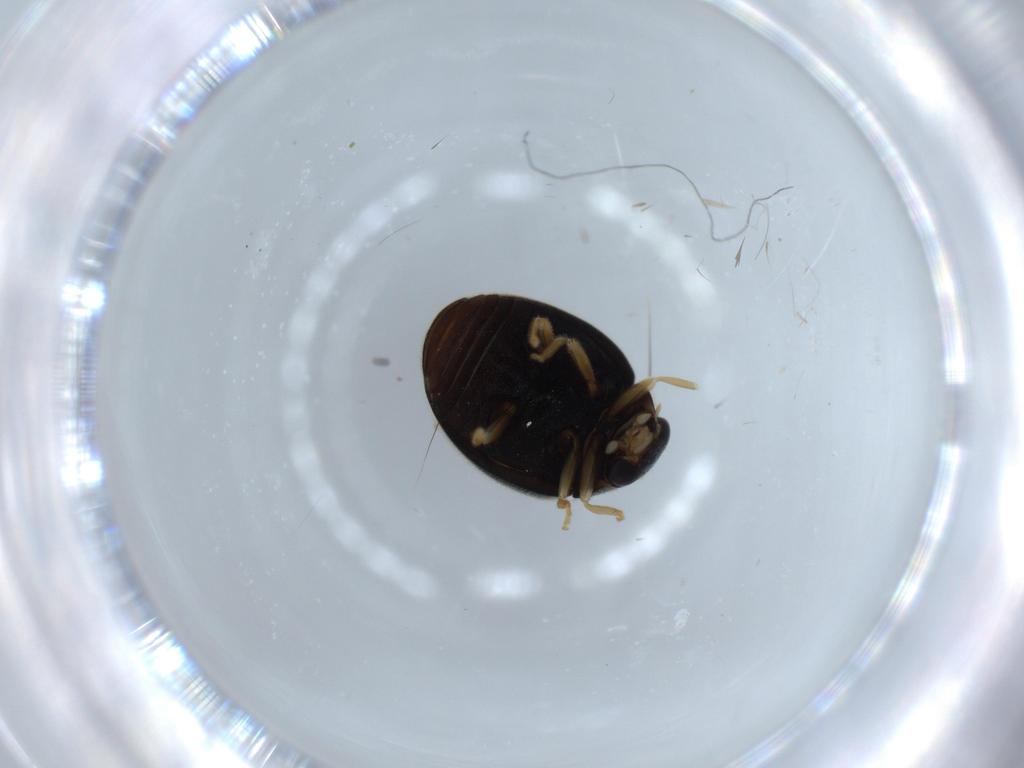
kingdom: Animalia
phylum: Arthropoda
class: Insecta
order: Coleoptera
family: Coccinellidae
